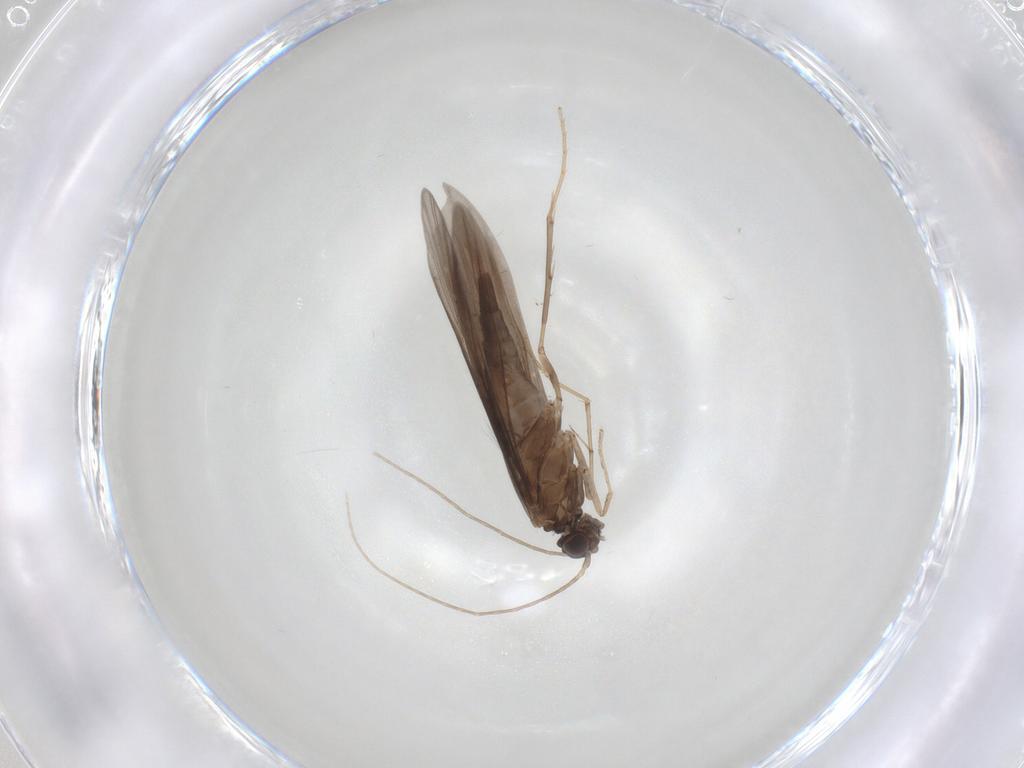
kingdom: Animalia
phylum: Arthropoda
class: Insecta
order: Trichoptera
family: Xiphocentronidae
